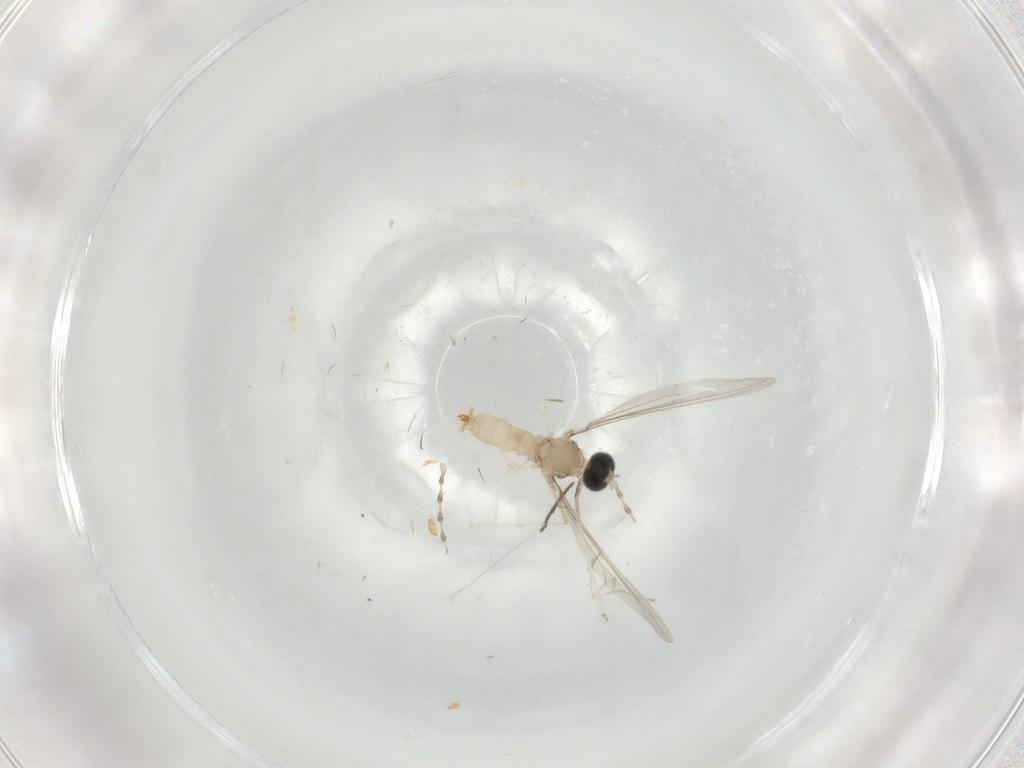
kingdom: Animalia
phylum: Arthropoda
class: Insecta
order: Diptera
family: Cecidomyiidae
